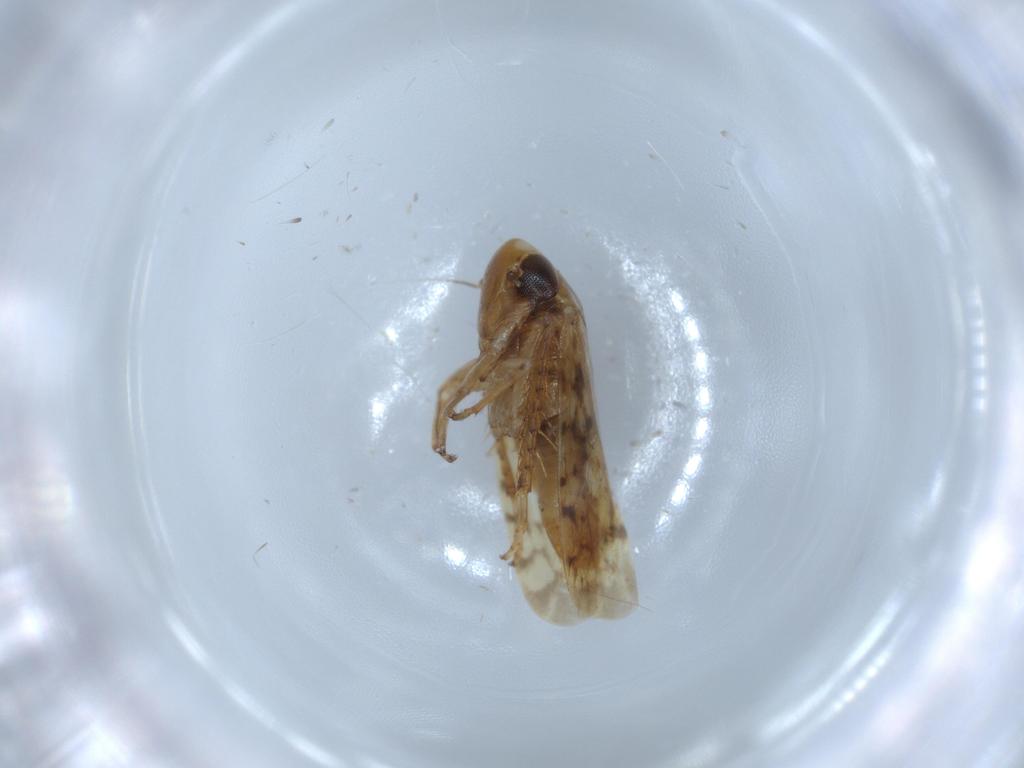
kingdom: Animalia
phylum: Arthropoda
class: Insecta
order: Hemiptera
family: Cicadellidae
